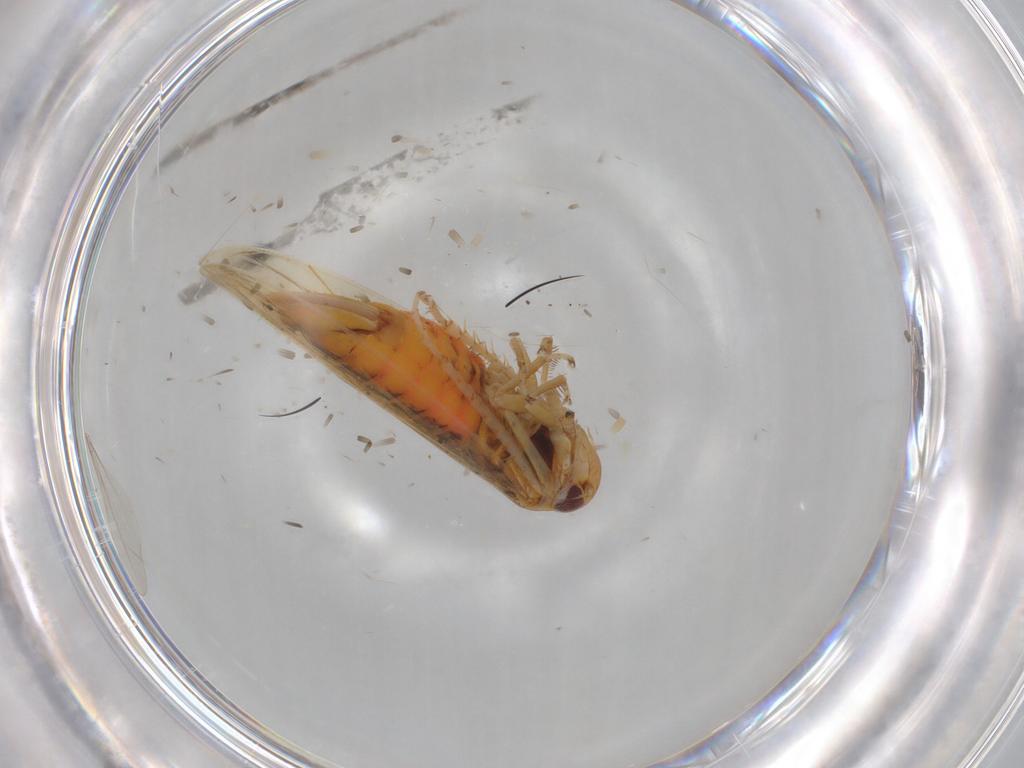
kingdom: Animalia
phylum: Arthropoda
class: Insecta
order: Hemiptera
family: Cicadellidae
